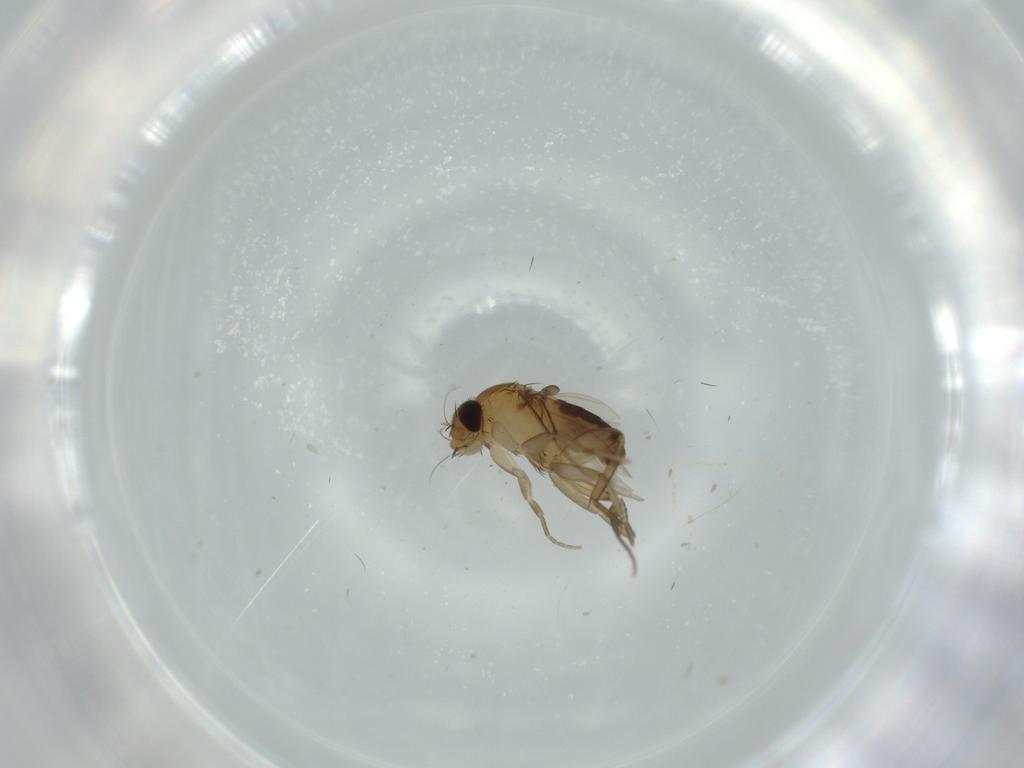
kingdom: Animalia
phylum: Arthropoda
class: Insecta
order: Diptera
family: Phoridae
